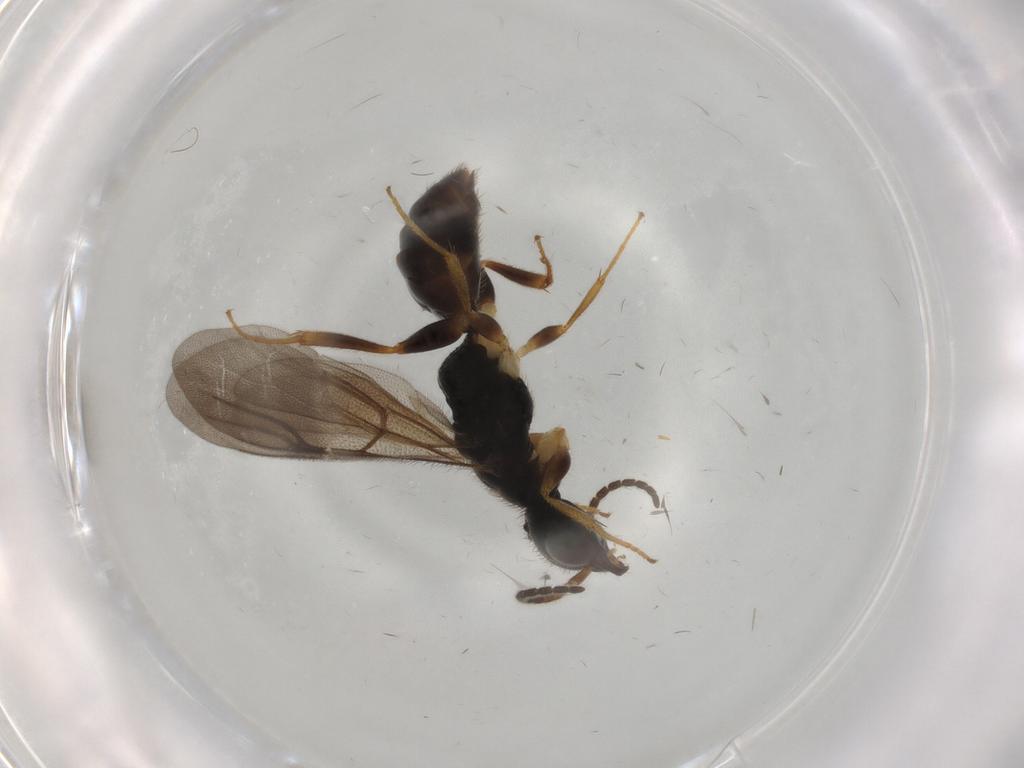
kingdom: Animalia
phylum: Arthropoda
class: Insecta
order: Hymenoptera
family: Bethylidae
